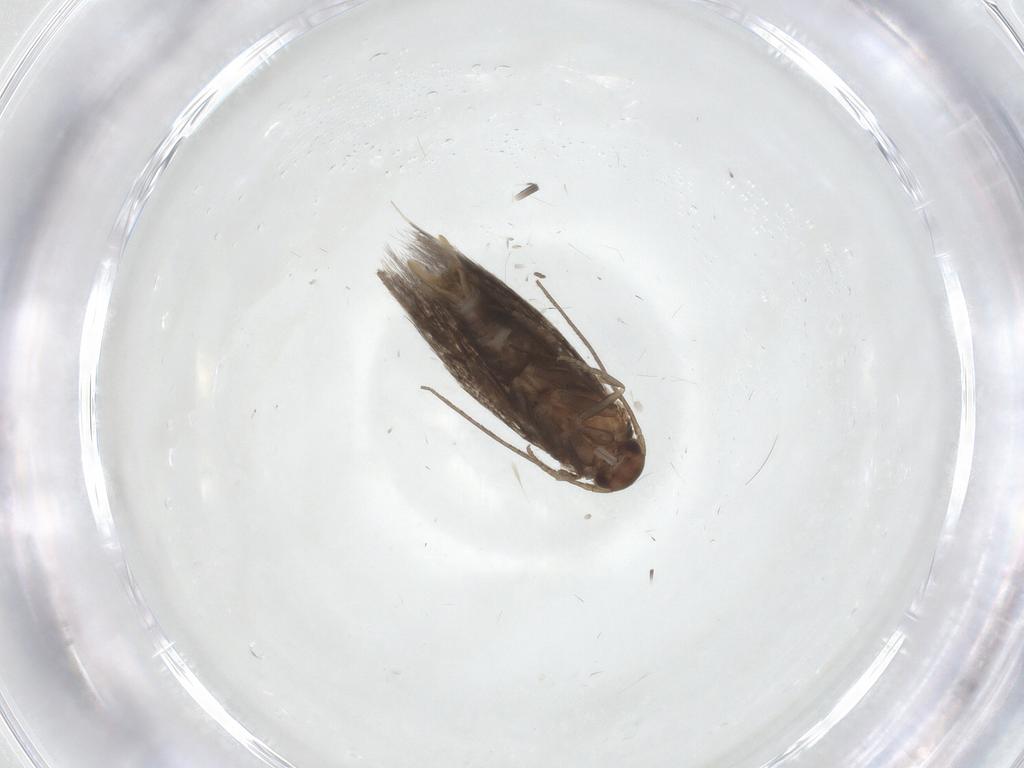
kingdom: Animalia
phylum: Arthropoda
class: Insecta
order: Lepidoptera
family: Elachistidae
